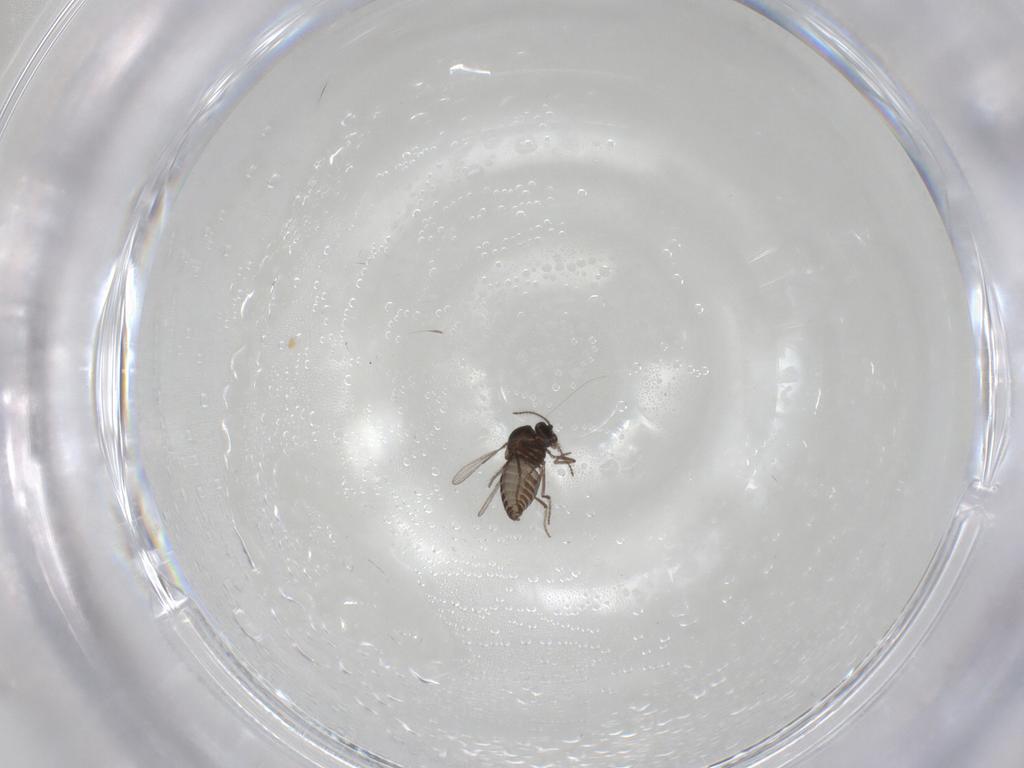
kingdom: Animalia
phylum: Arthropoda
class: Insecta
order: Diptera
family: Ceratopogonidae
